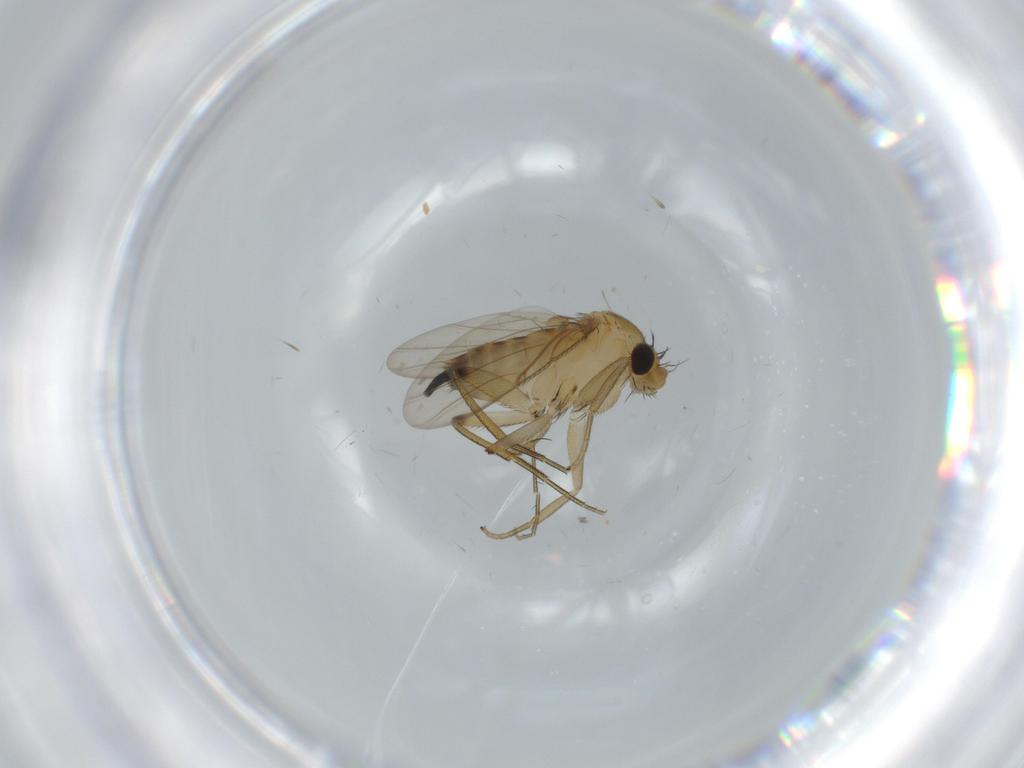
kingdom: Animalia
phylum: Arthropoda
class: Insecta
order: Diptera
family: Phoridae
